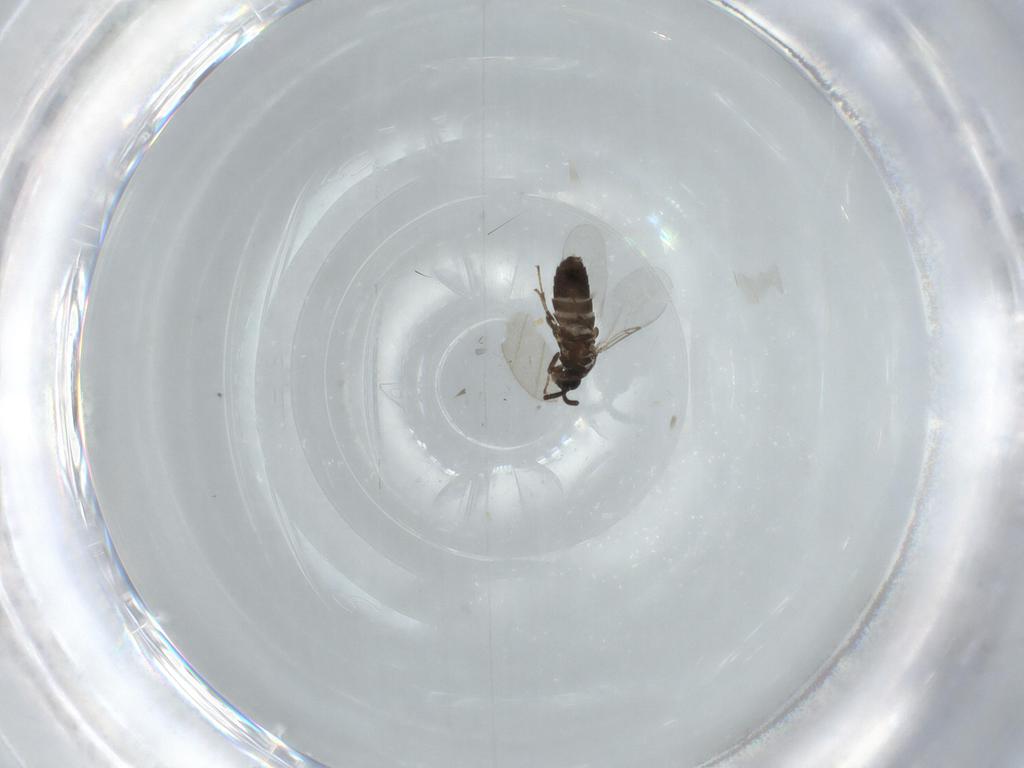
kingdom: Animalia
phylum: Arthropoda
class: Insecta
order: Diptera
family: Scatopsidae
